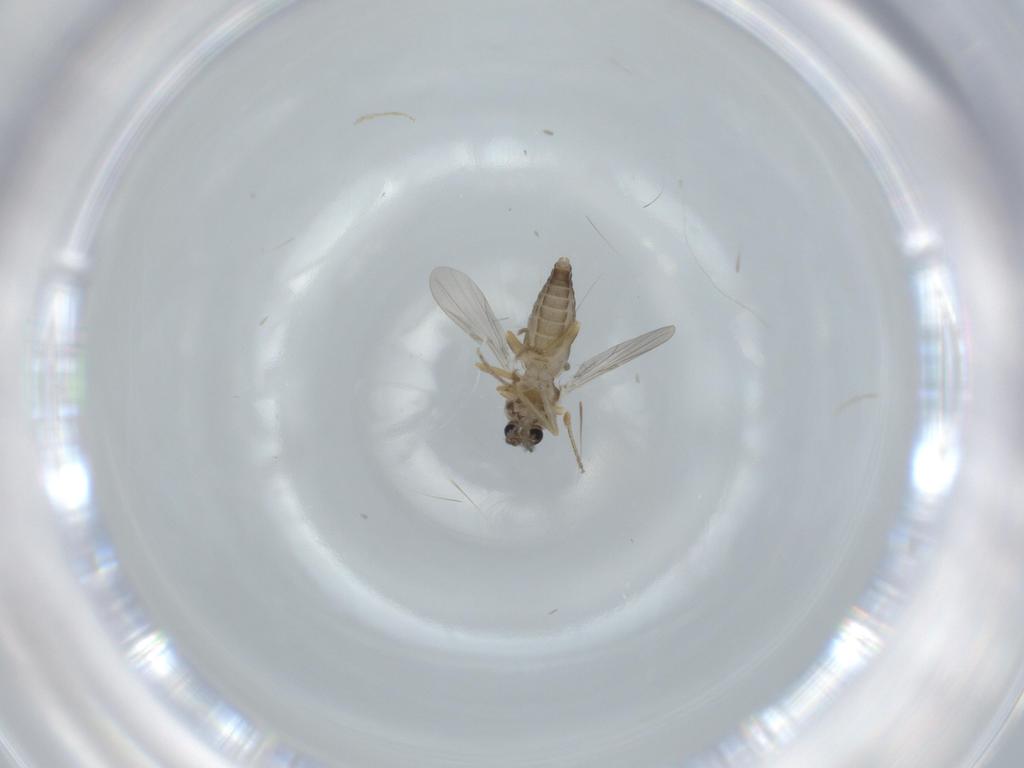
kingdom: Animalia
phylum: Arthropoda
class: Insecta
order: Diptera
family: Ceratopogonidae
